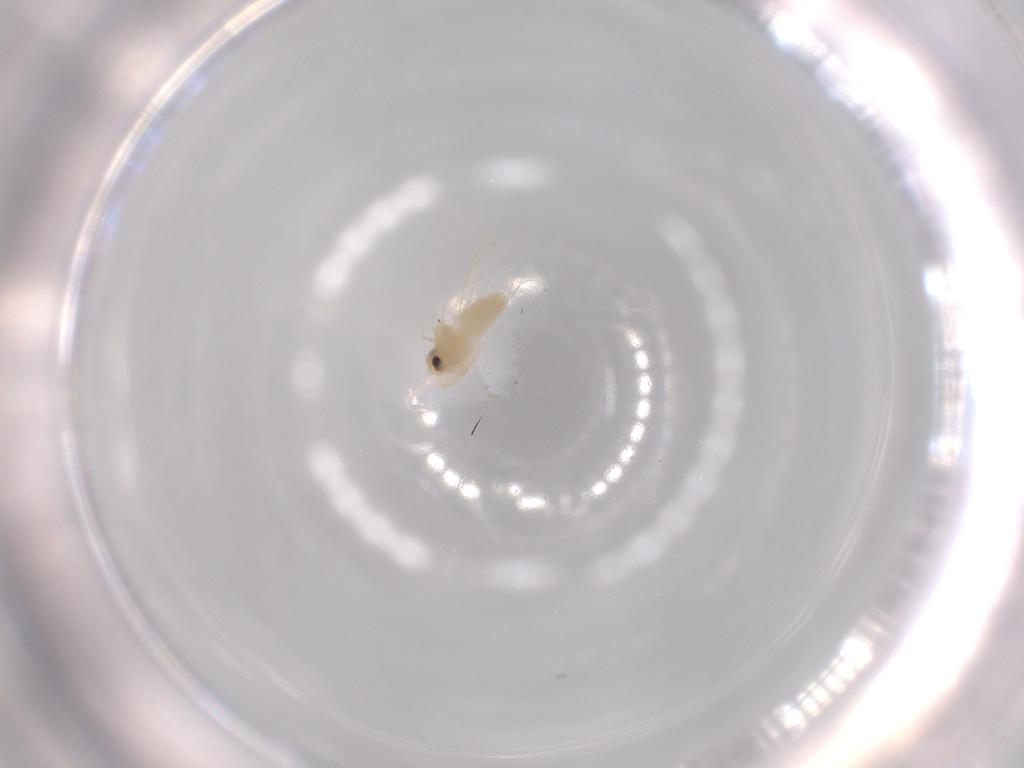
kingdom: Animalia
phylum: Arthropoda
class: Insecta
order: Hemiptera
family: Aleyrodidae
